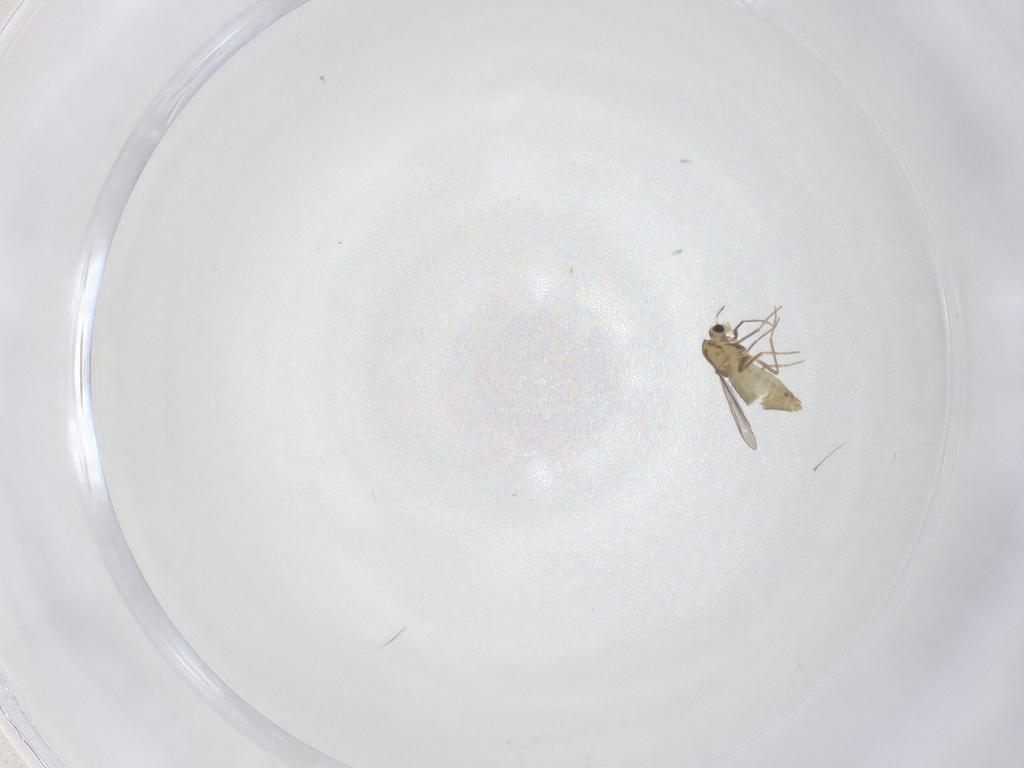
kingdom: Animalia
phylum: Arthropoda
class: Insecta
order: Diptera
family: Chironomidae
